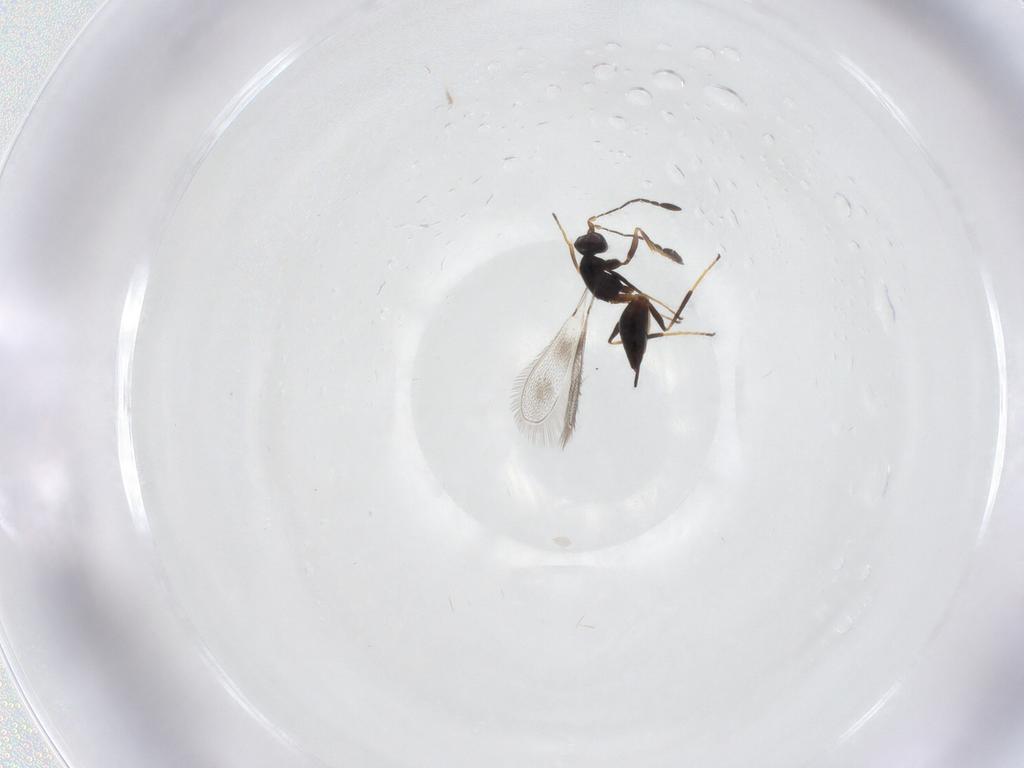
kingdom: Animalia
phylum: Arthropoda
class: Insecta
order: Hymenoptera
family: Mymaridae
